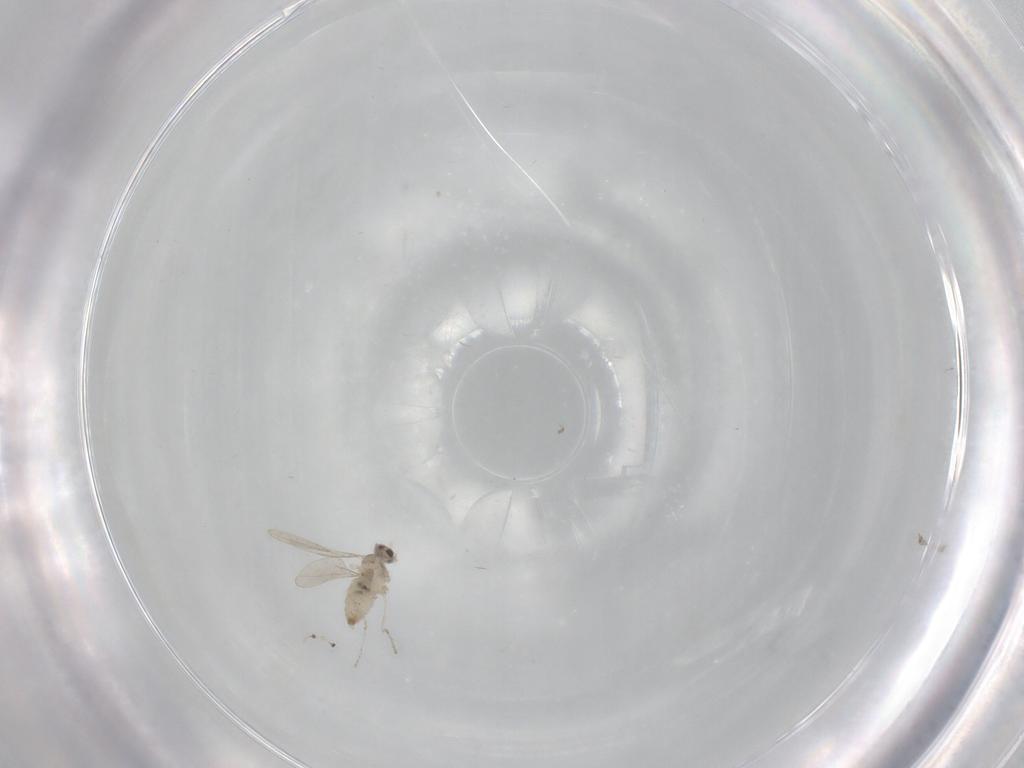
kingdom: Animalia
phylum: Arthropoda
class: Insecta
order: Diptera
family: Cecidomyiidae
